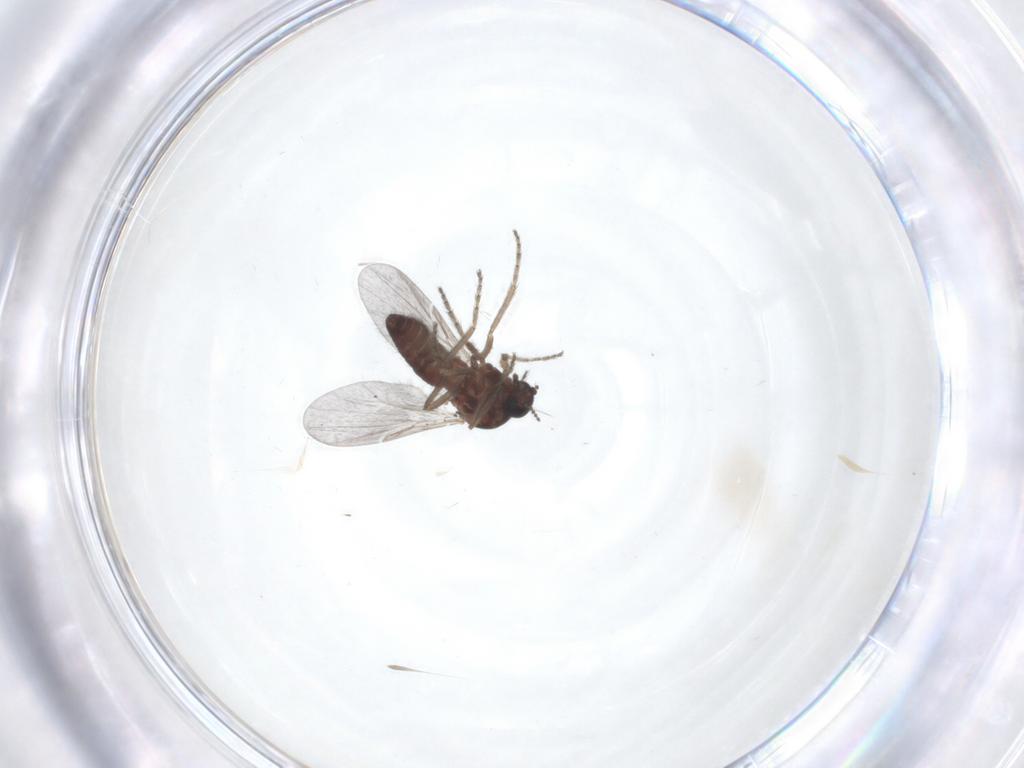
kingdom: Animalia
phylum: Arthropoda
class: Insecta
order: Diptera
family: Ceratopogonidae
